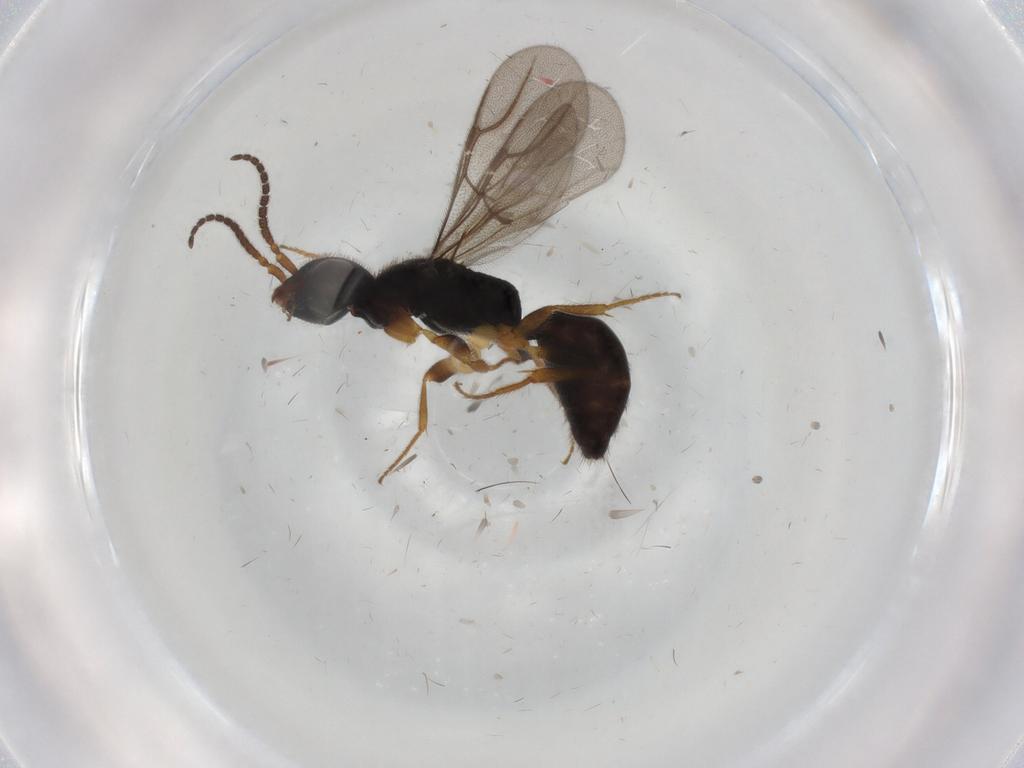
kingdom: Animalia
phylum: Arthropoda
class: Insecta
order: Hymenoptera
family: Bethylidae
